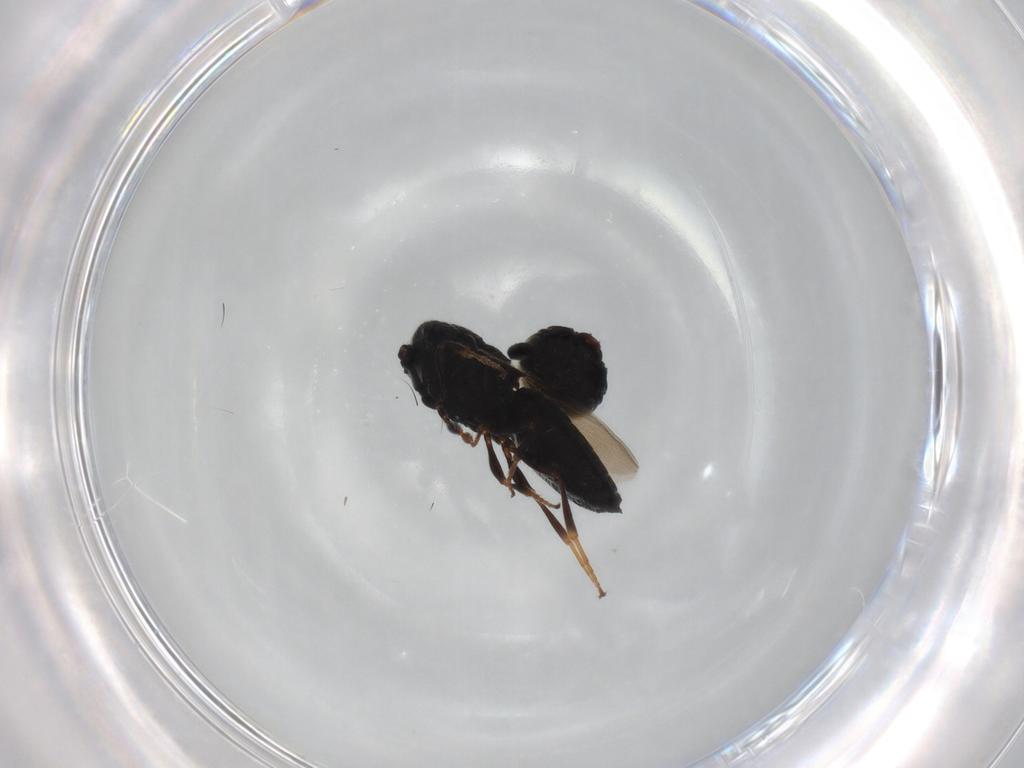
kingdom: Animalia
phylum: Arthropoda
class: Insecta
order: Hymenoptera
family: Scelionidae
